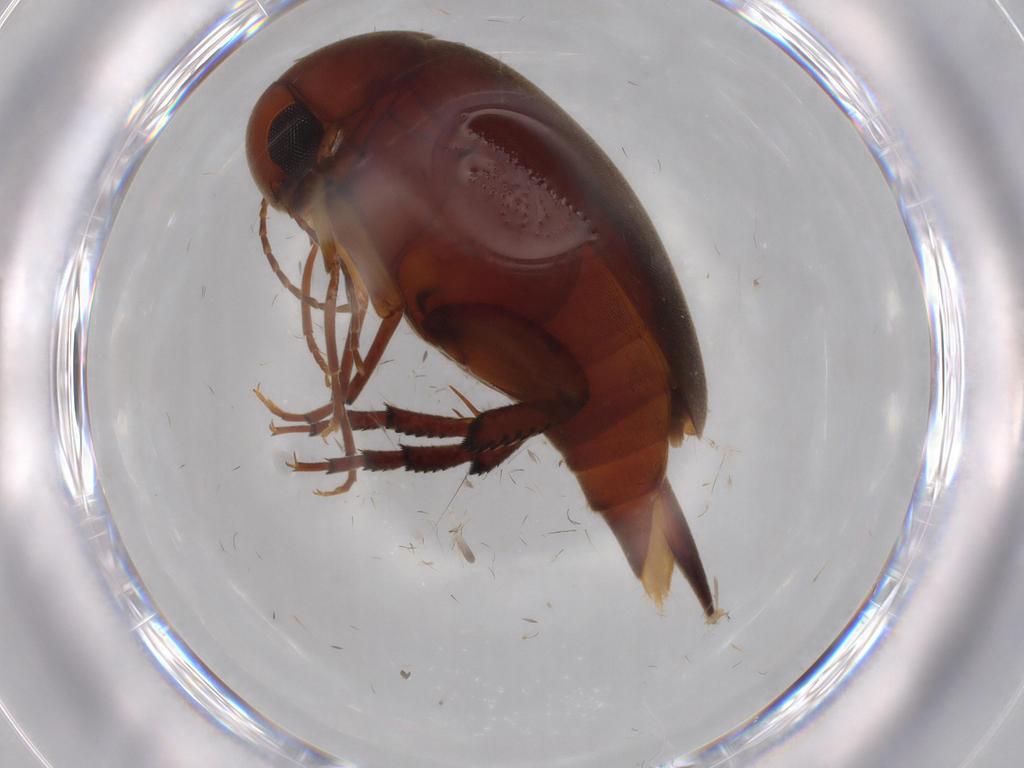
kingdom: Animalia
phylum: Arthropoda
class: Insecta
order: Coleoptera
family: Mordellidae
